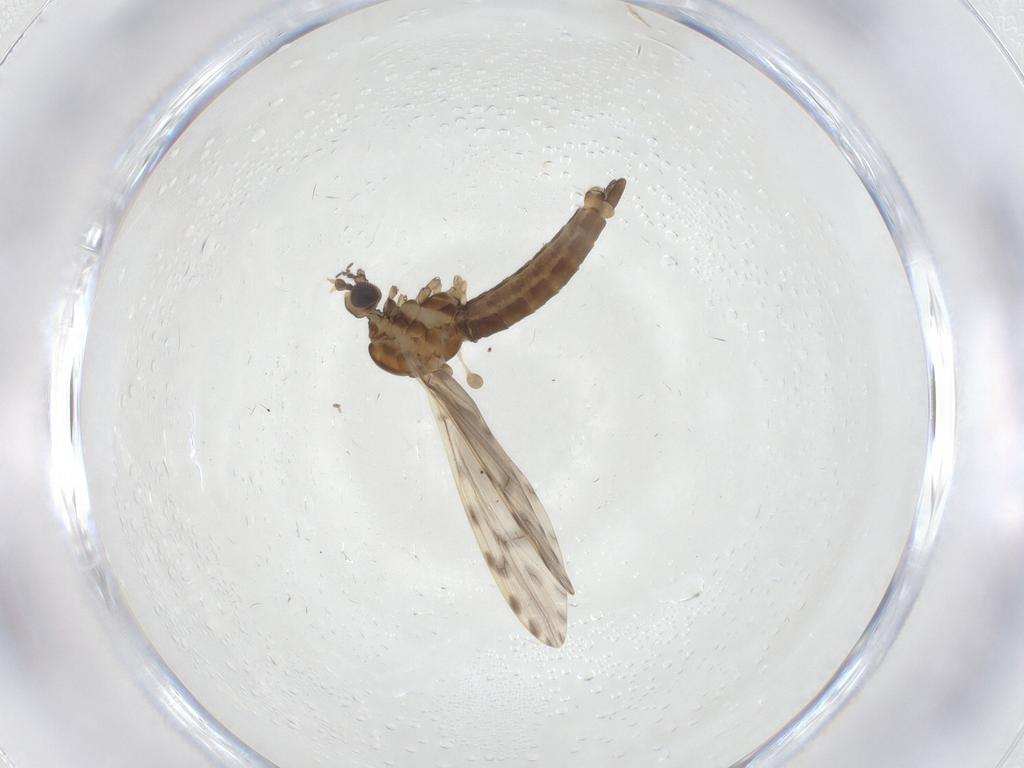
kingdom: Animalia
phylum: Arthropoda
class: Insecta
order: Diptera
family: Limoniidae
